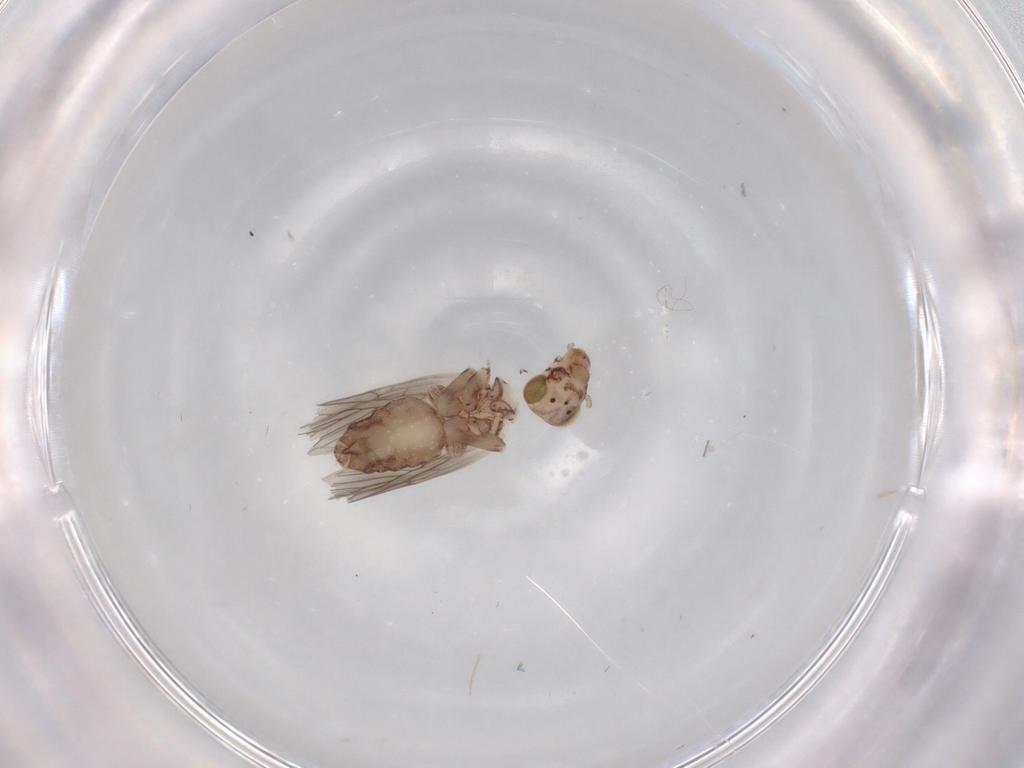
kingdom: Animalia
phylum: Arthropoda
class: Insecta
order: Psocodea
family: Lepidopsocidae
